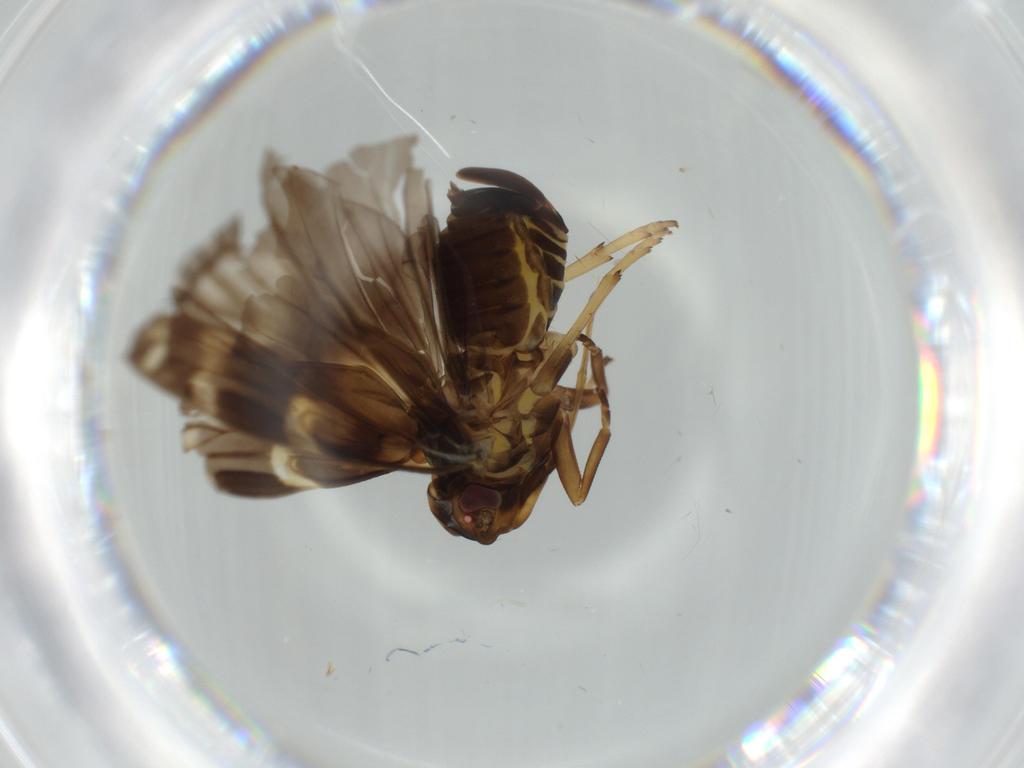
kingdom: Animalia
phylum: Arthropoda
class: Insecta
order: Hemiptera
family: Cixiidae
